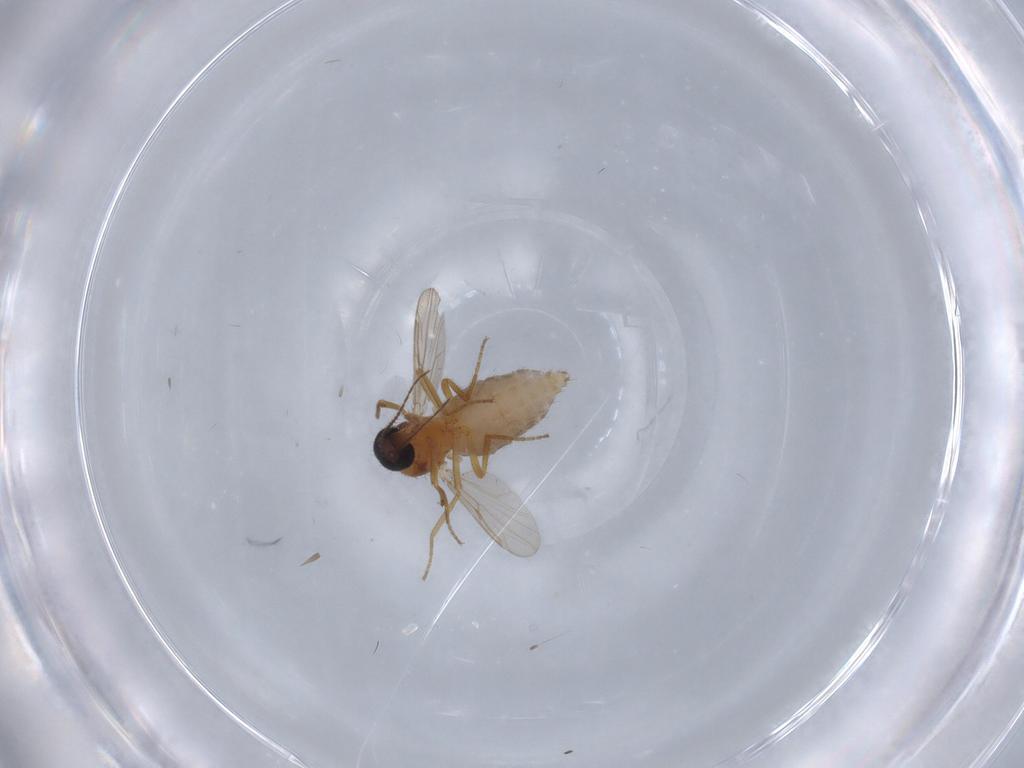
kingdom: Animalia
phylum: Arthropoda
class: Insecta
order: Diptera
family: Ceratopogonidae
